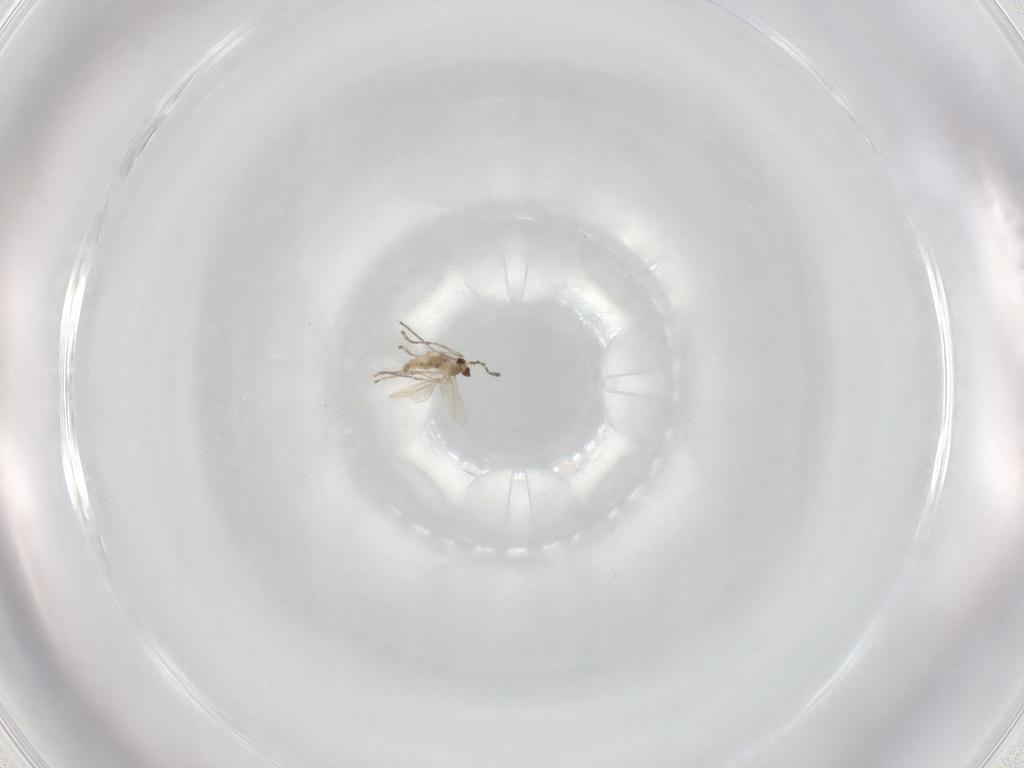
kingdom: Animalia
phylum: Arthropoda
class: Insecta
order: Diptera
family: Cecidomyiidae
